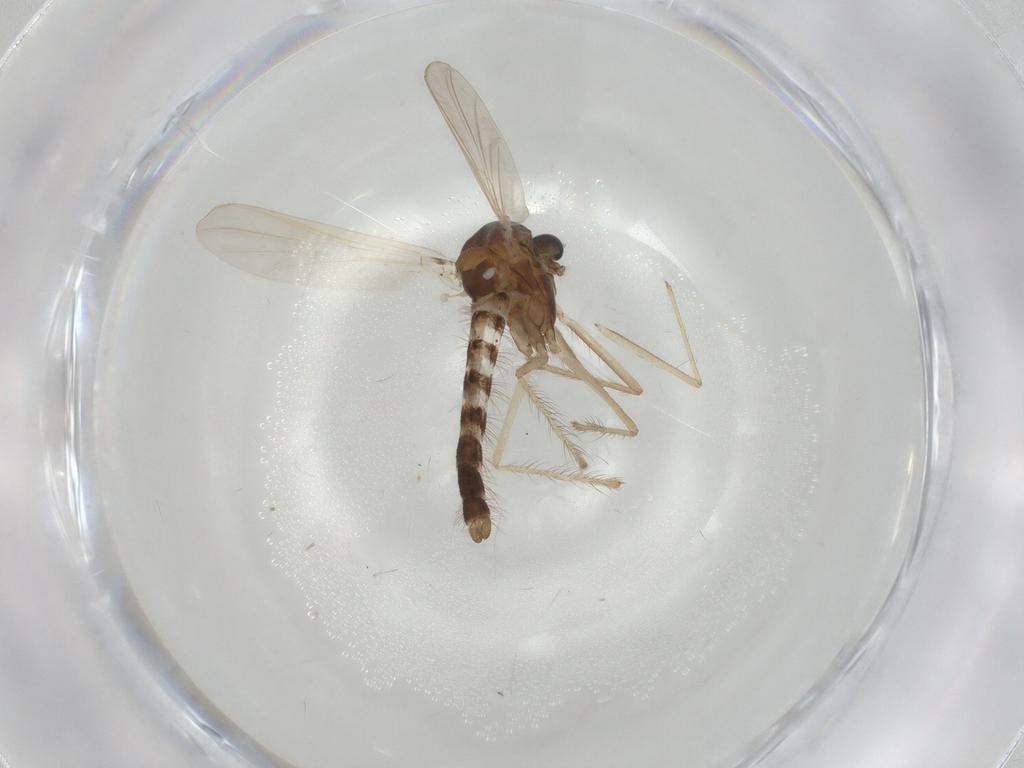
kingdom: Animalia
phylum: Arthropoda
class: Insecta
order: Diptera
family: Chironomidae
